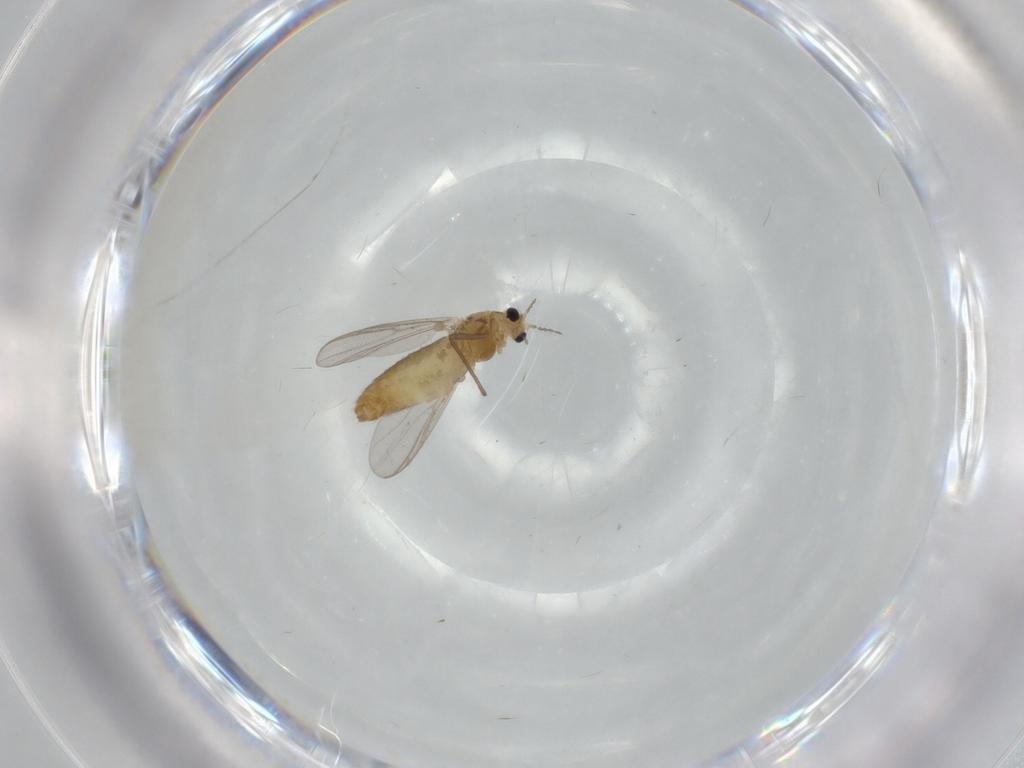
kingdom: Animalia
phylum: Arthropoda
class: Insecta
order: Diptera
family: Chironomidae
